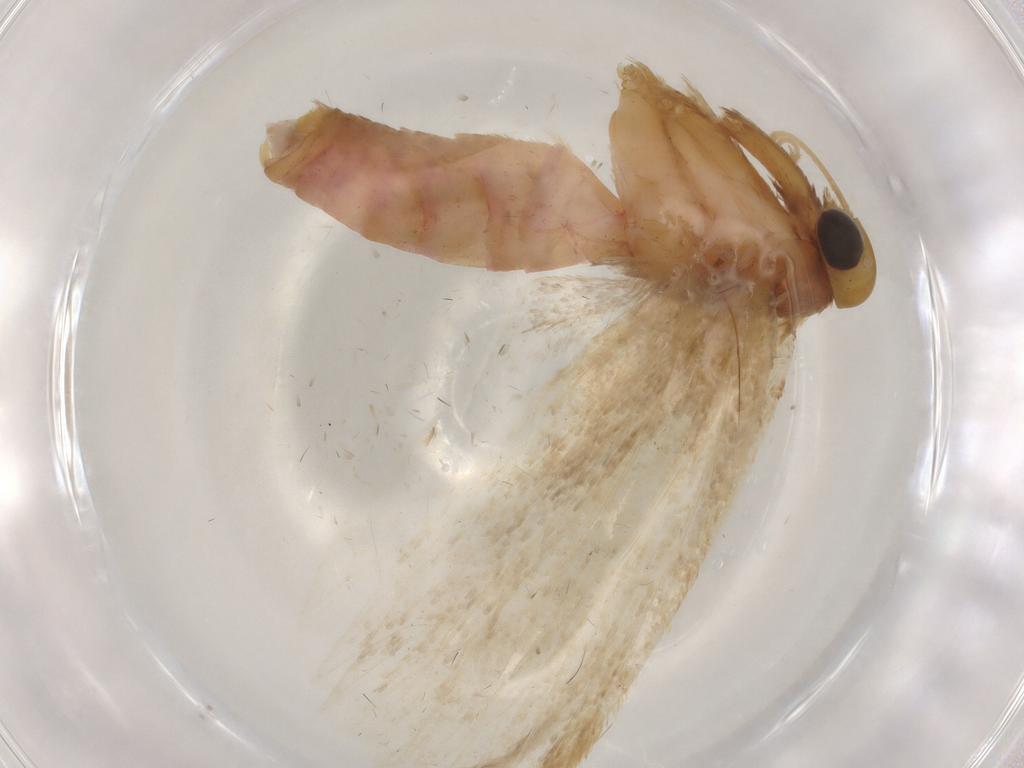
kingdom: Animalia
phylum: Arthropoda
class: Insecta
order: Lepidoptera
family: Autostichidae
